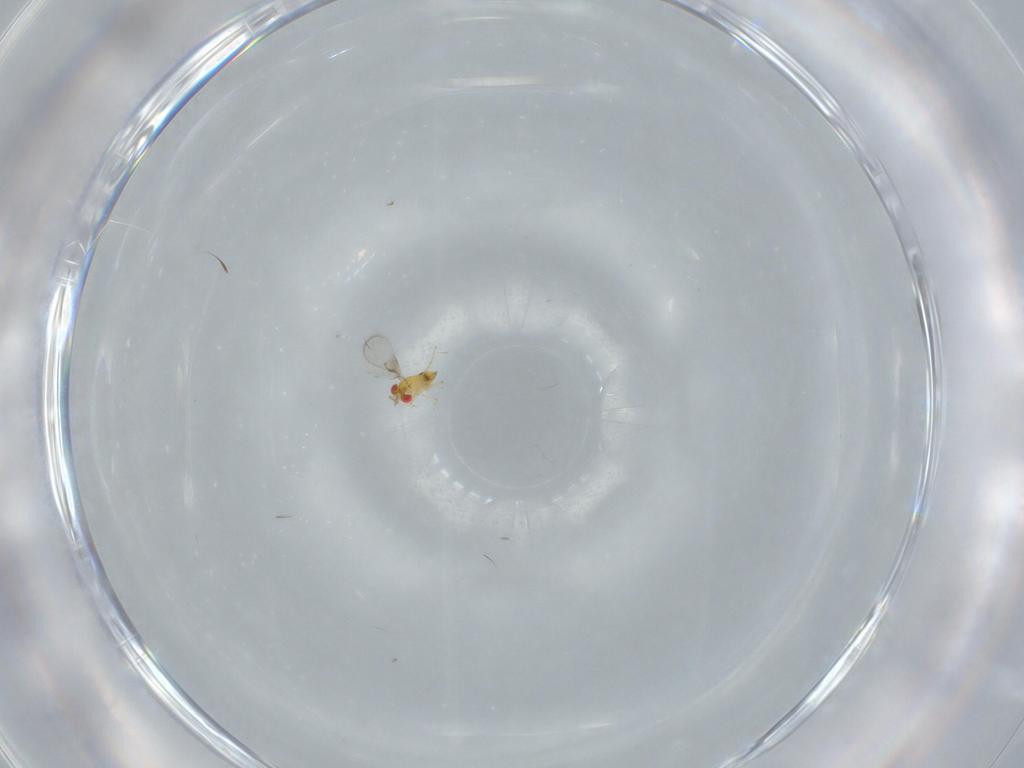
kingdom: Animalia
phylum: Arthropoda
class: Insecta
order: Hymenoptera
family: Trichogrammatidae
